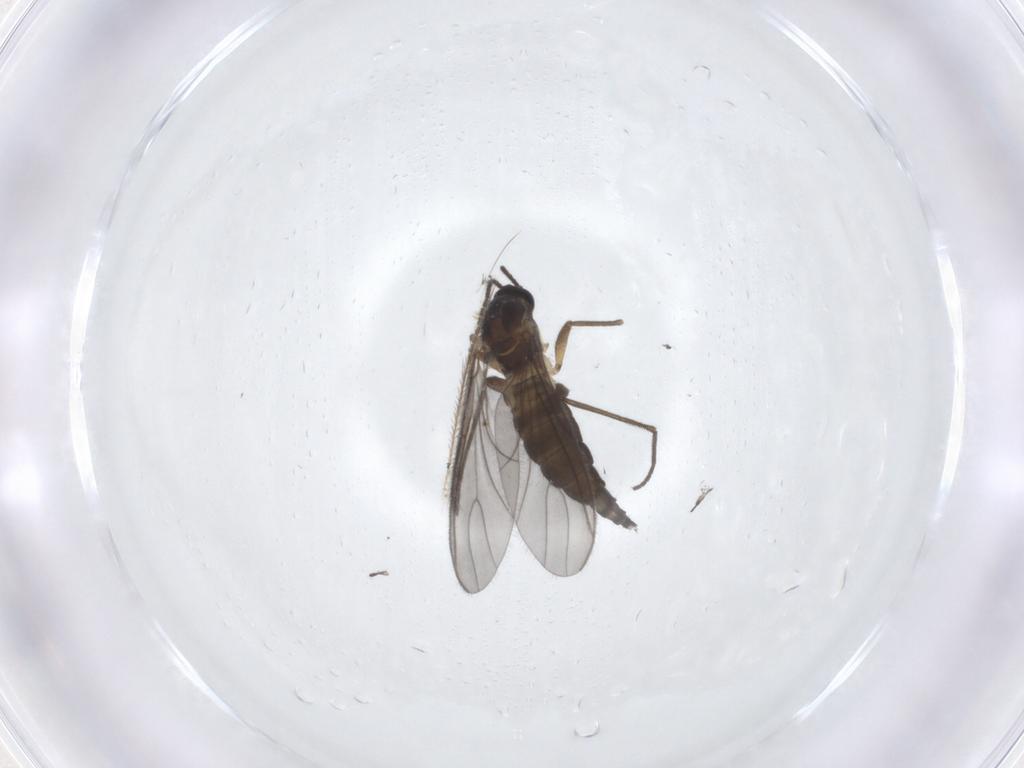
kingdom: Animalia
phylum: Arthropoda
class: Insecta
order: Diptera
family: Sciaridae
